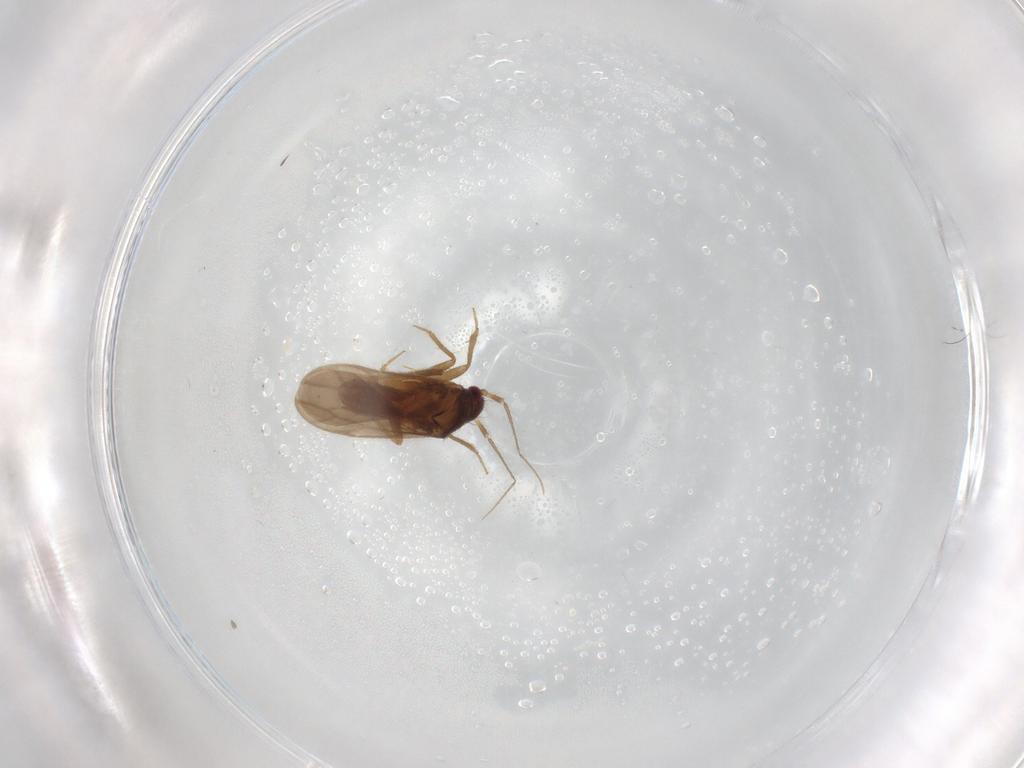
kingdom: Animalia
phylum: Arthropoda
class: Insecta
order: Hemiptera
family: Ceratocombidae
